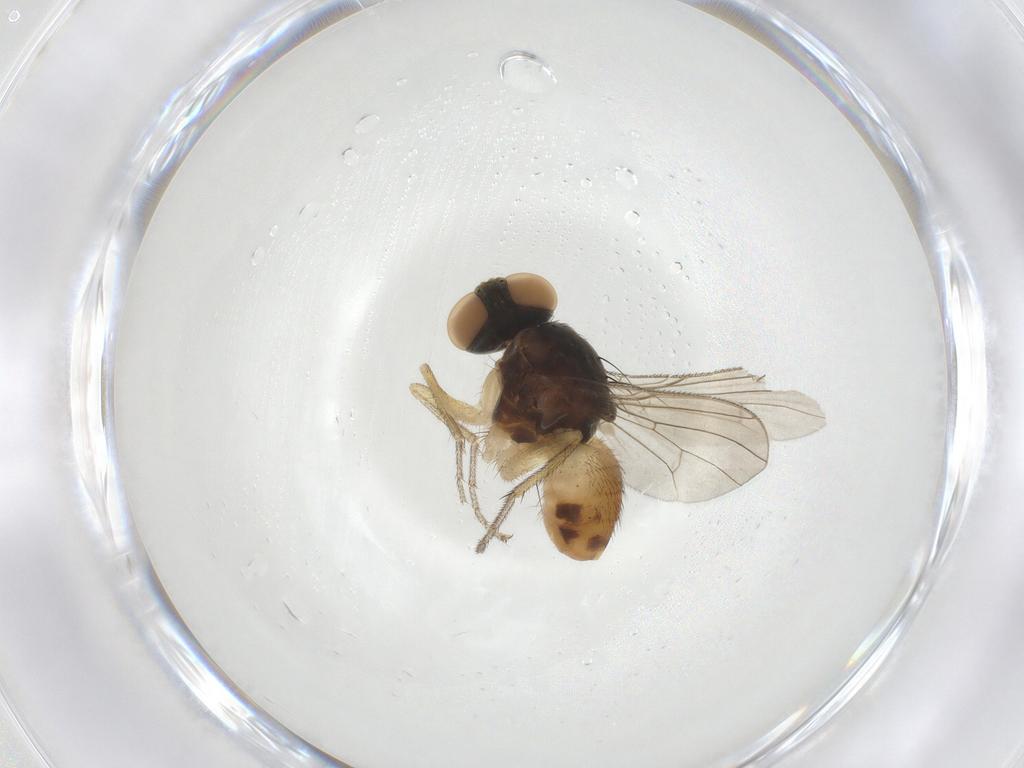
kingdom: Animalia
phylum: Arthropoda
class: Insecta
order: Diptera
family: Muscidae
